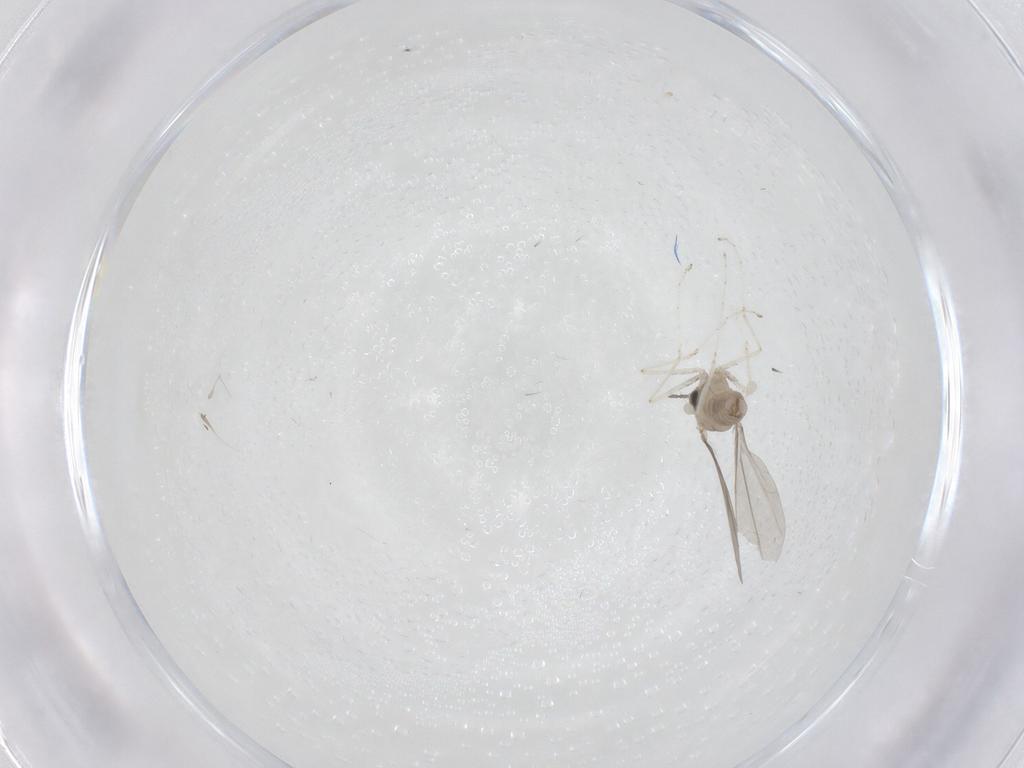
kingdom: Animalia
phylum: Arthropoda
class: Insecta
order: Diptera
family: Cecidomyiidae
